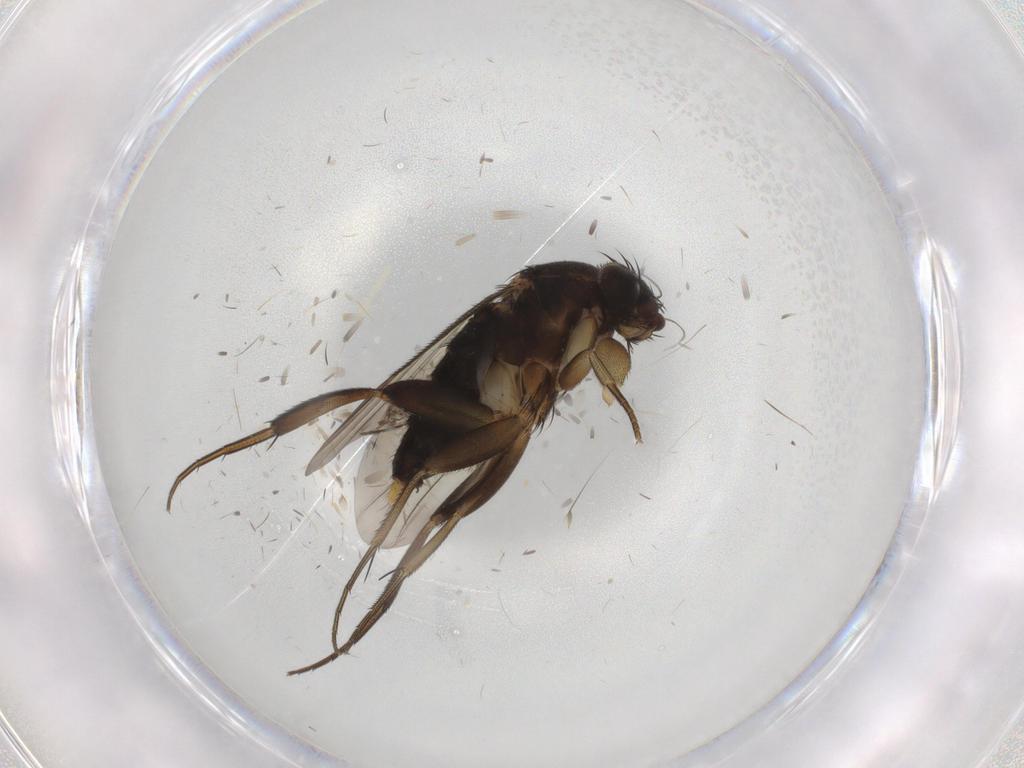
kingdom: Animalia
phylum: Arthropoda
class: Insecta
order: Diptera
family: Phoridae
